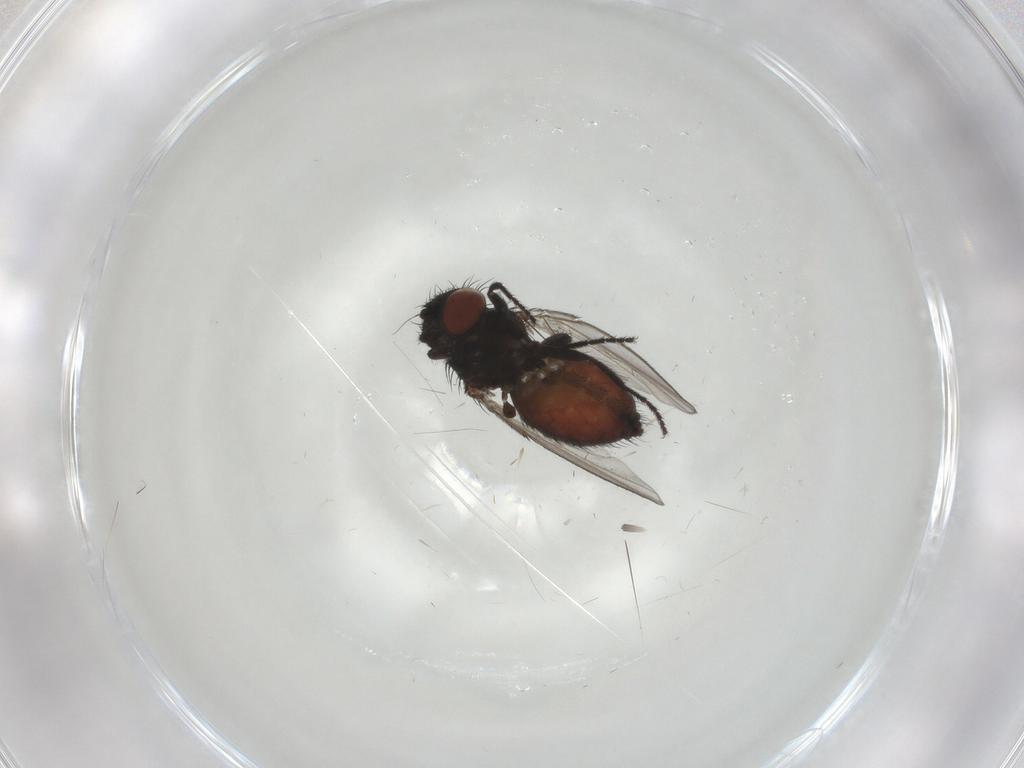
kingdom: Animalia
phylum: Arthropoda
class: Insecta
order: Diptera
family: Milichiidae
